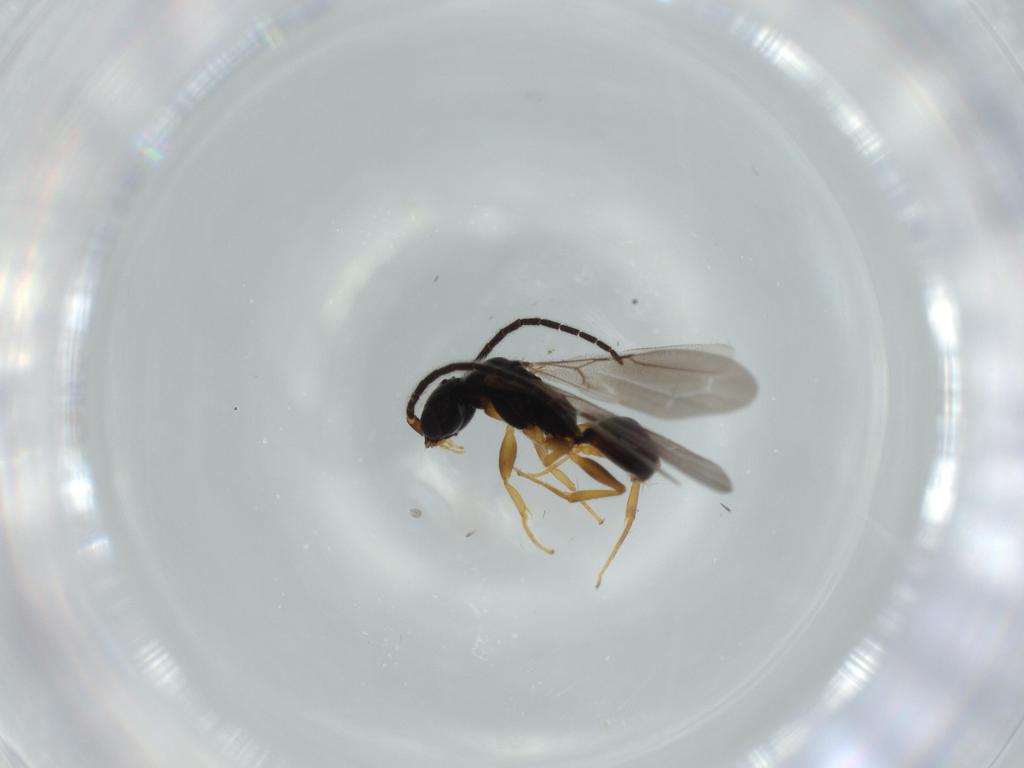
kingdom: Animalia
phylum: Arthropoda
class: Insecta
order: Hymenoptera
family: Bethylidae
